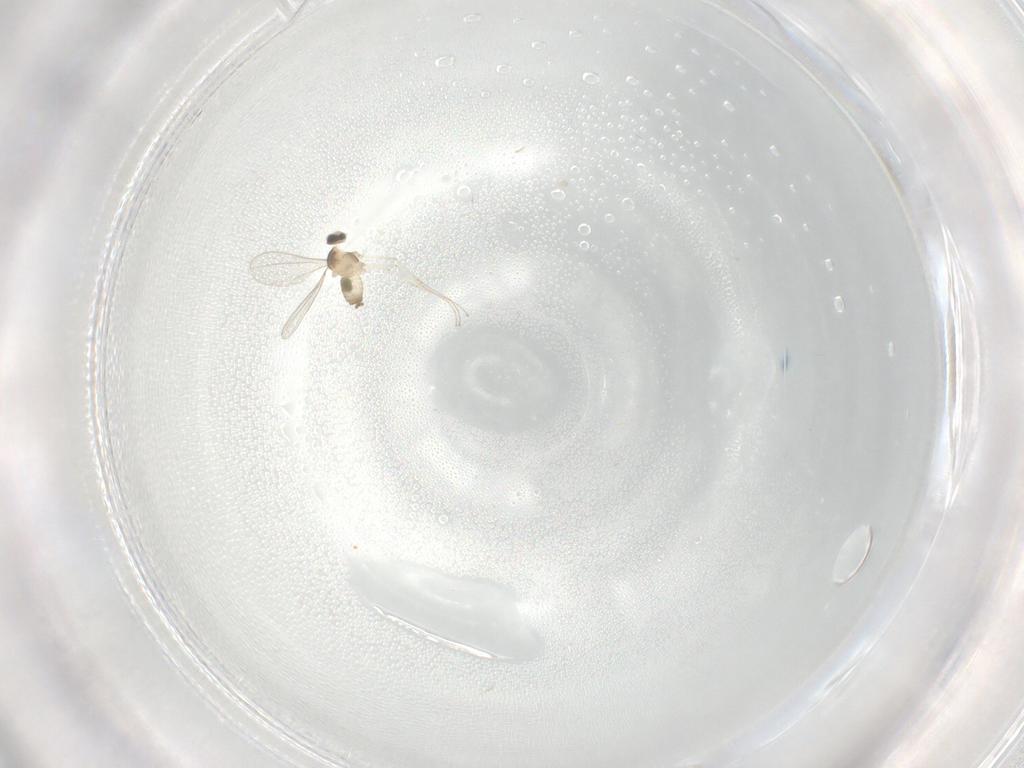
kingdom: Animalia
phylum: Arthropoda
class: Insecta
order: Diptera
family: Cecidomyiidae
